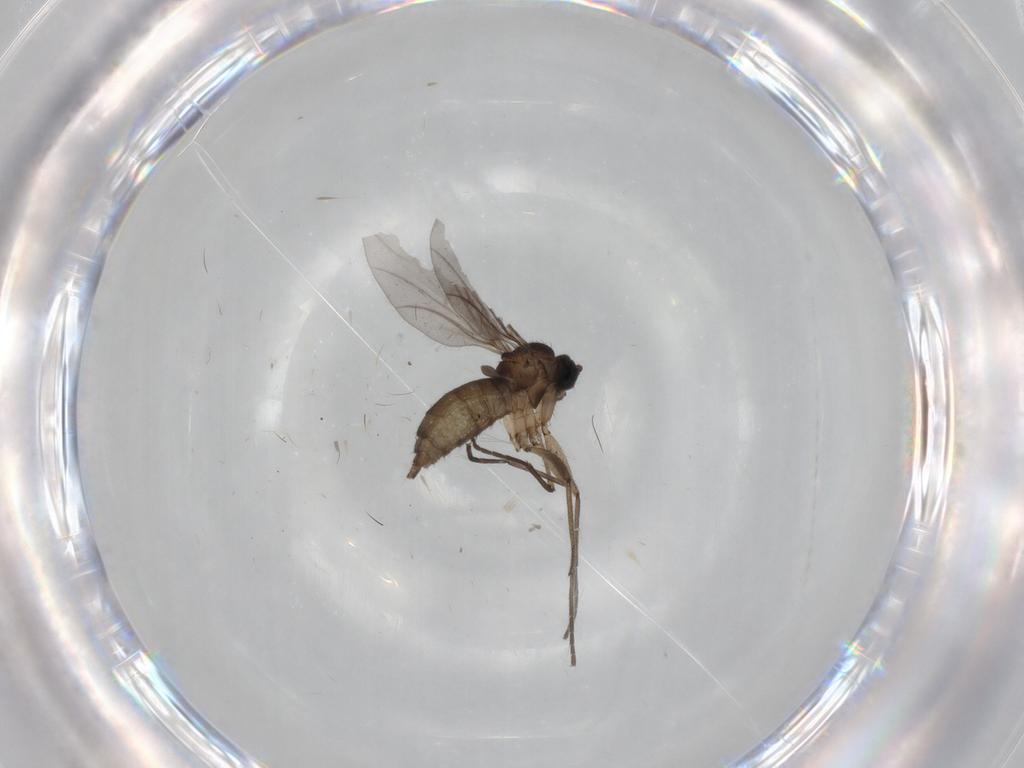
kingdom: Animalia
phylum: Arthropoda
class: Insecta
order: Diptera
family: Sciaridae
